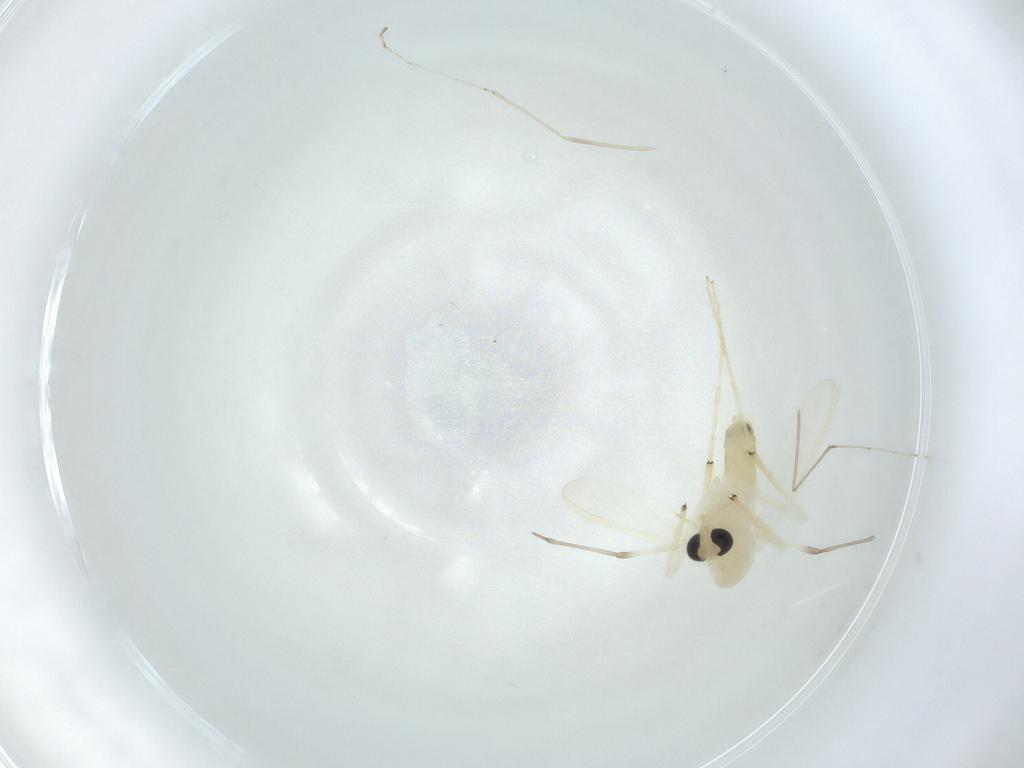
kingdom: Animalia
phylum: Arthropoda
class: Insecta
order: Diptera
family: Chironomidae
